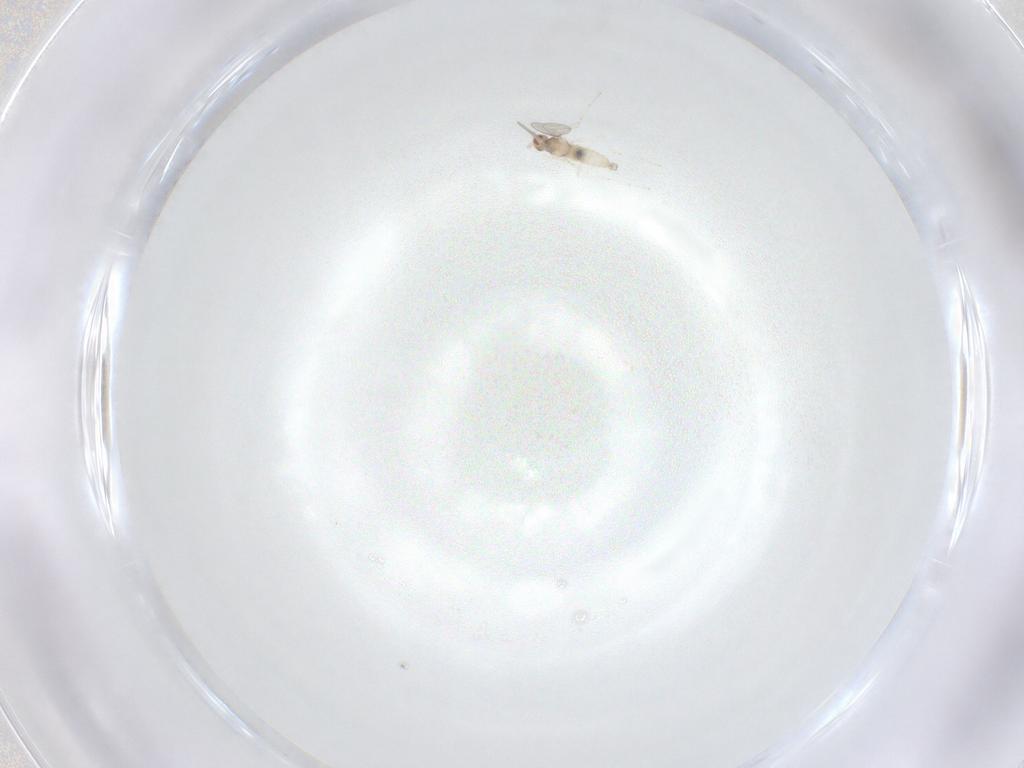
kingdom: Animalia
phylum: Arthropoda
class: Insecta
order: Diptera
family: Cecidomyiidae
